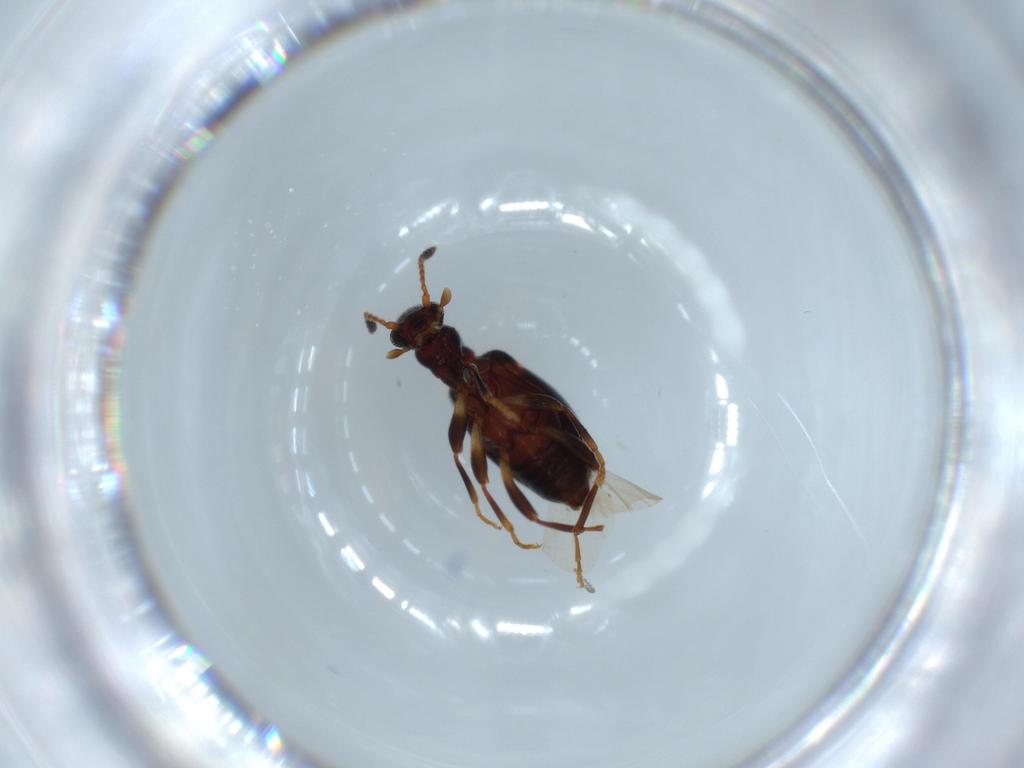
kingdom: Animalia
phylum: Arthropoda
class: Insecta
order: Coleoptera
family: Anthicidae
